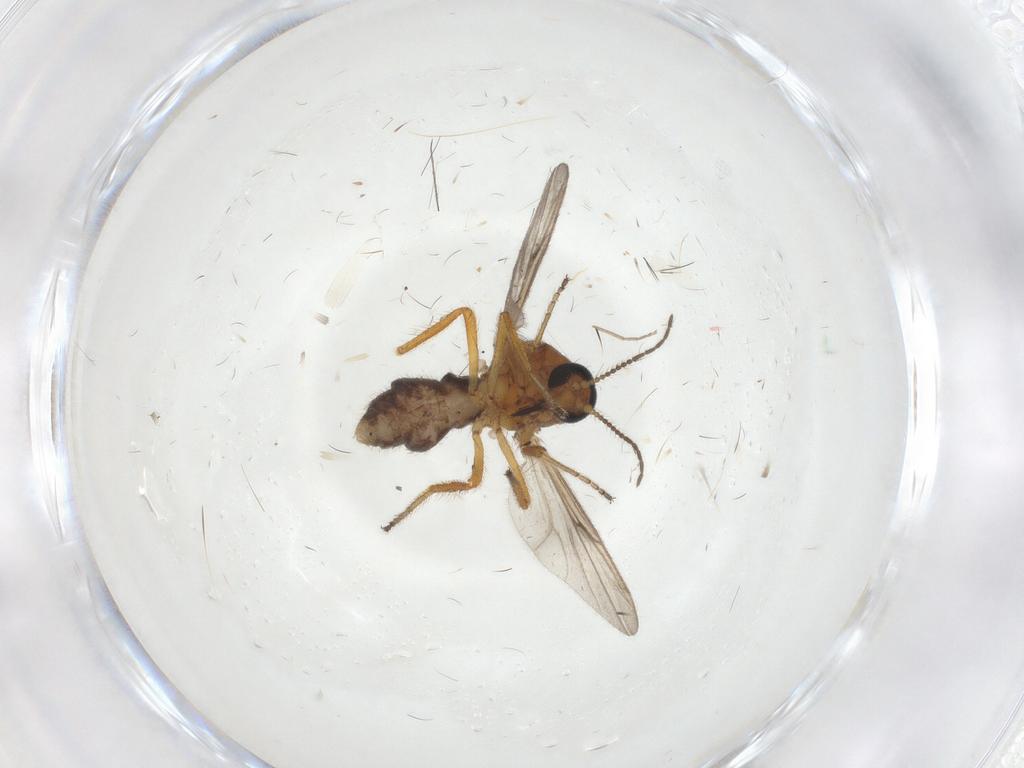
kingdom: Animalia
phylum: Arthropoda
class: Insecta
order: Diptera
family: Ceratopogonidae
